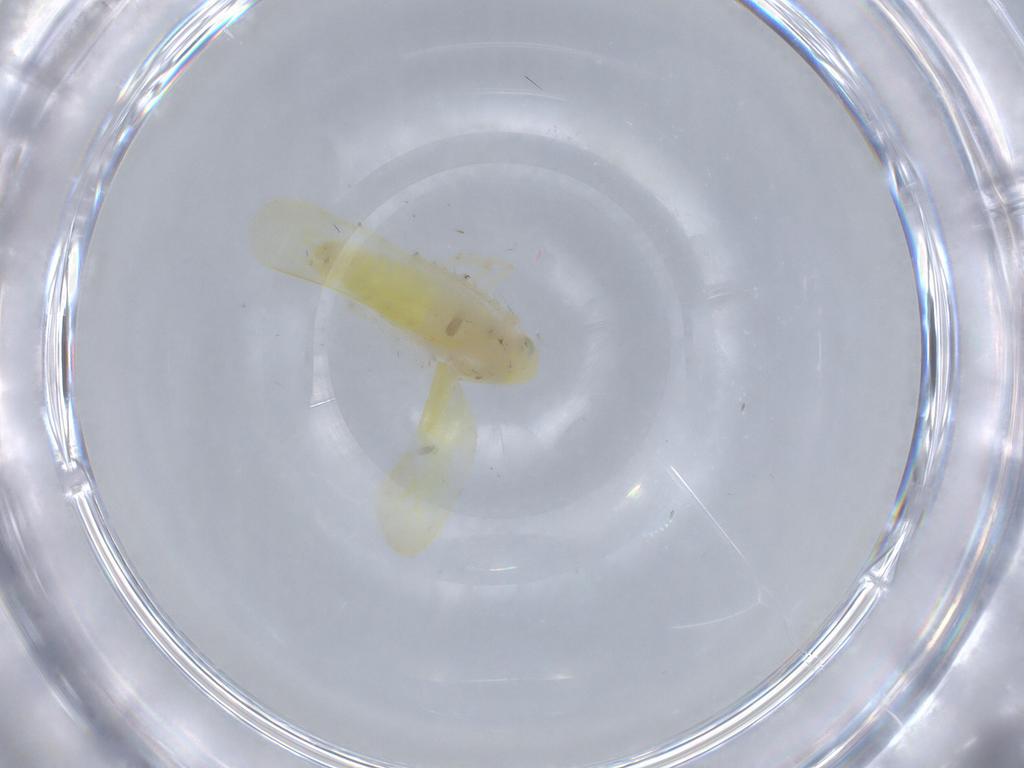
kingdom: Animalia
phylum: Arthropoda
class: Insecta
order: Hemiptera
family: Cicadellidae
